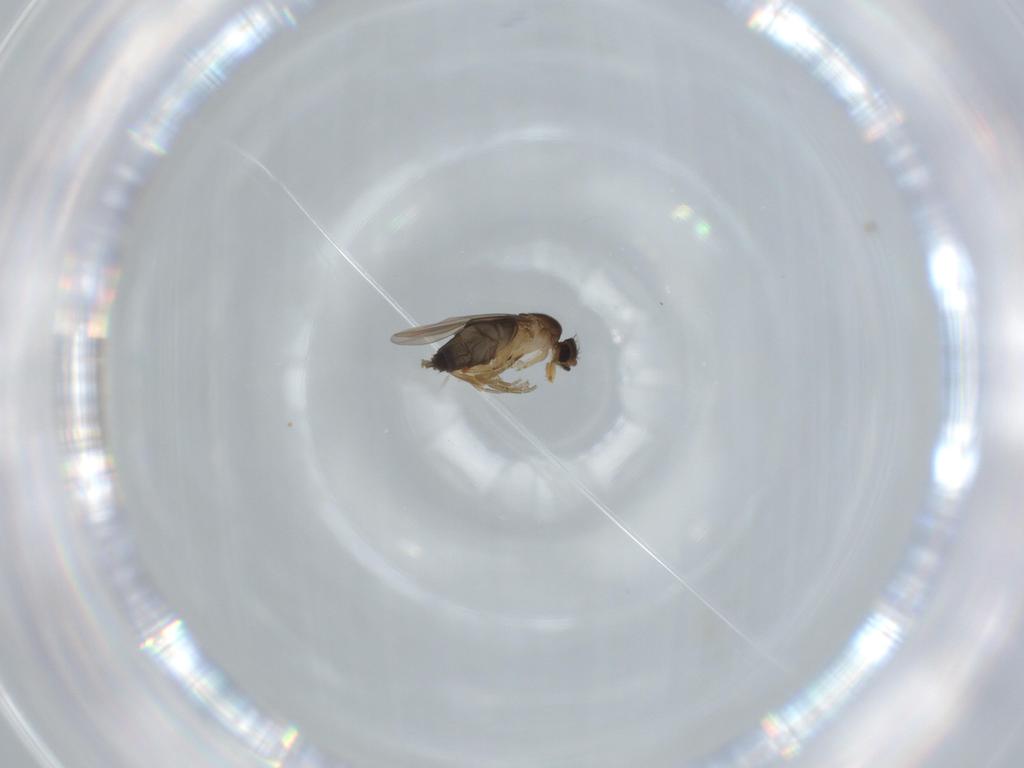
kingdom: Animalia
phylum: Arthropoda
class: Insecta
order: Diptera
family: Phoridae
